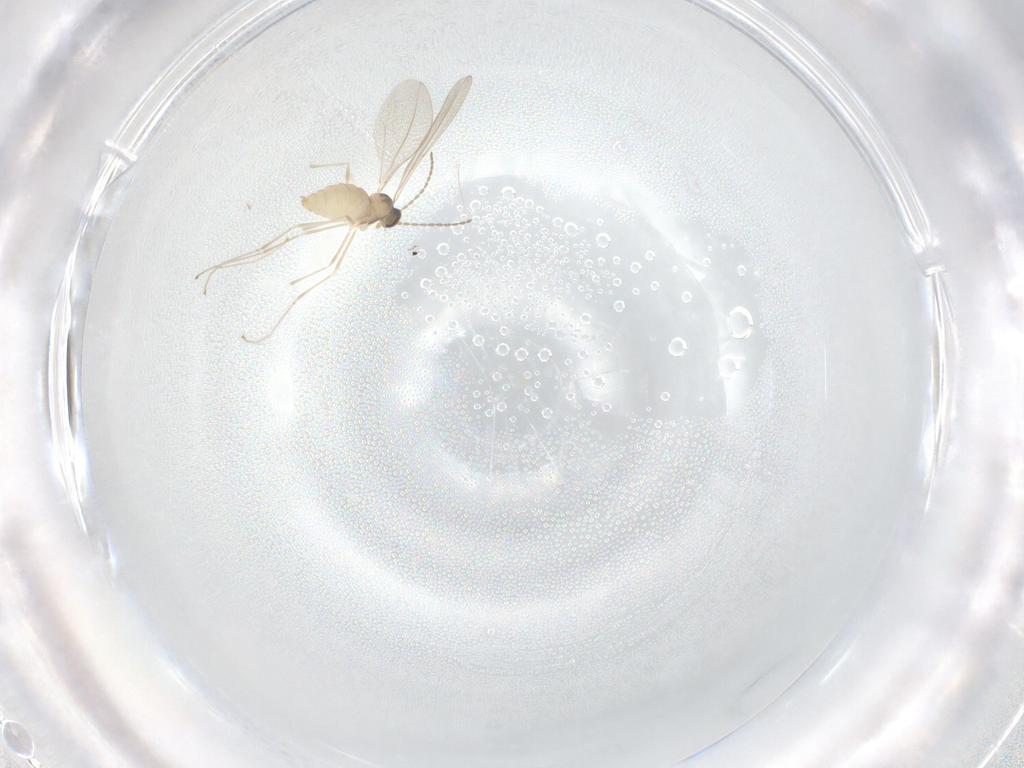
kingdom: Animalia
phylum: Arthropoda
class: Insecta
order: Diptera
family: Cecidomyiidae
